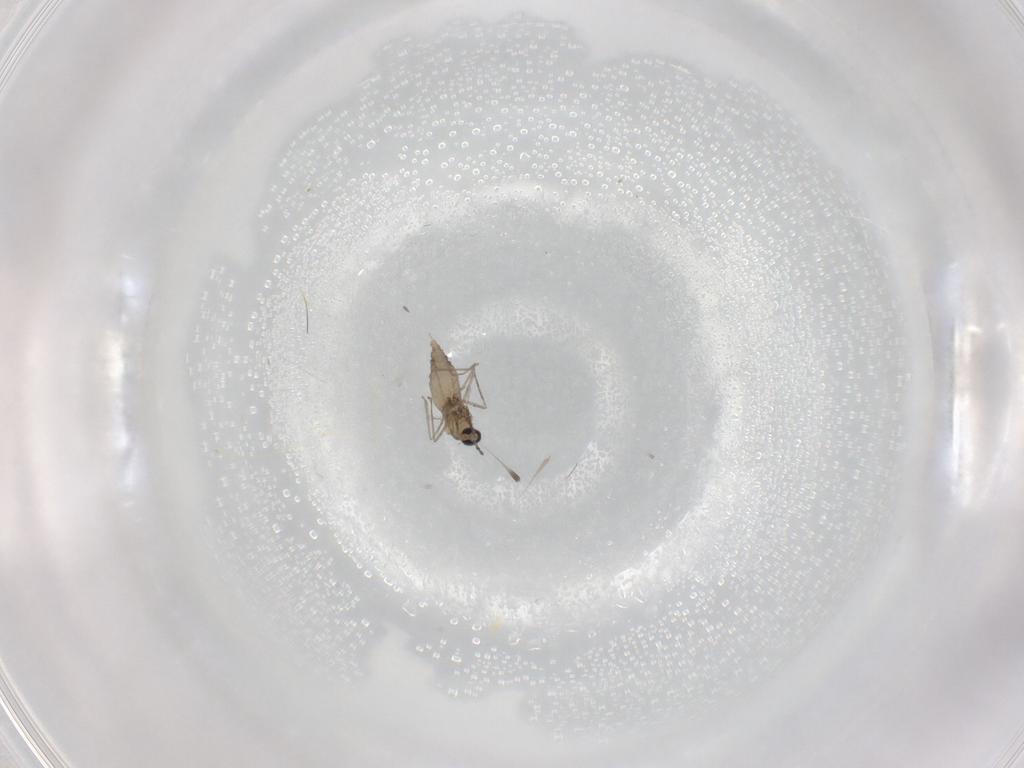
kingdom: Animalia
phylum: Arthropoda
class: Insecta
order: Diptera
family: Cecidomyiidae
